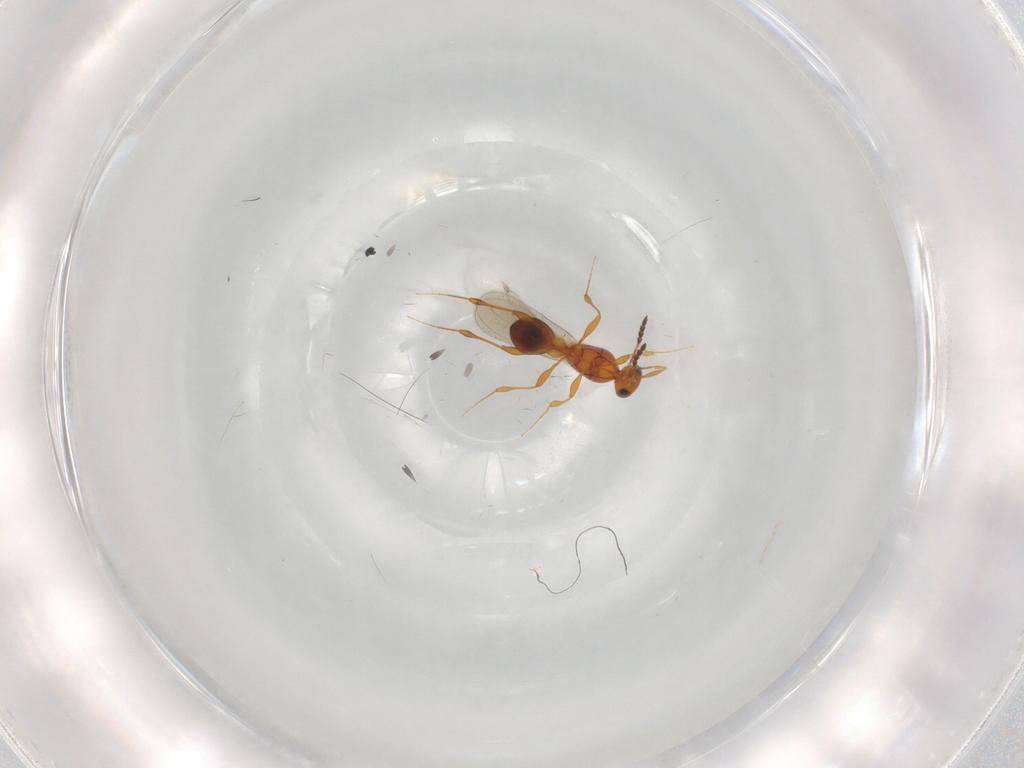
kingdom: Animalia
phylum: Arthropoda
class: Insecta
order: Hymenoptera
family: Platygastridae
